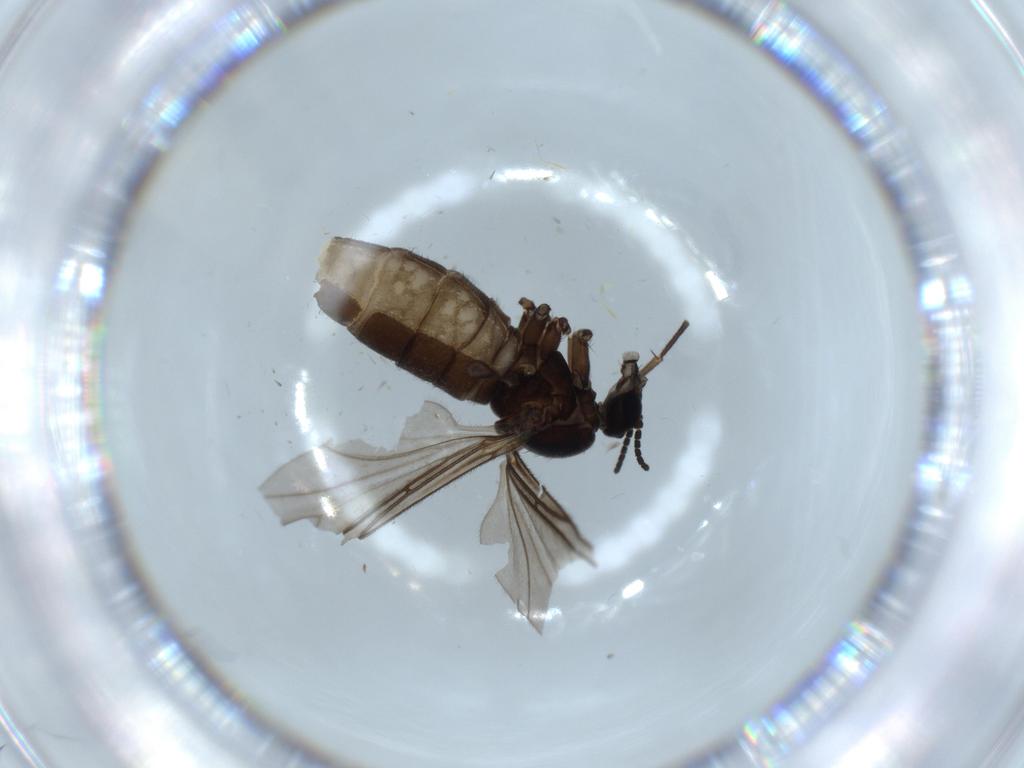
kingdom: Animalia
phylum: Arthropoda
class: Insecta
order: Diptera
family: Sciaridae
